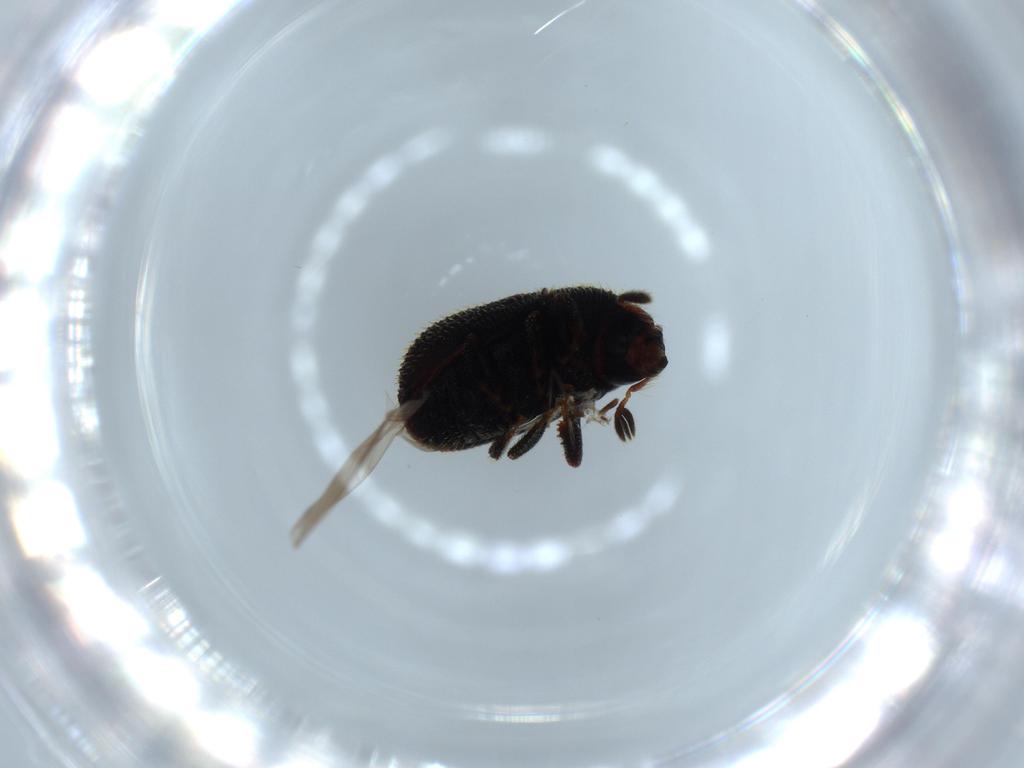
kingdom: Animalia
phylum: Arthropoda
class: Insecta
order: Coleoptera
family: Curculionidae
